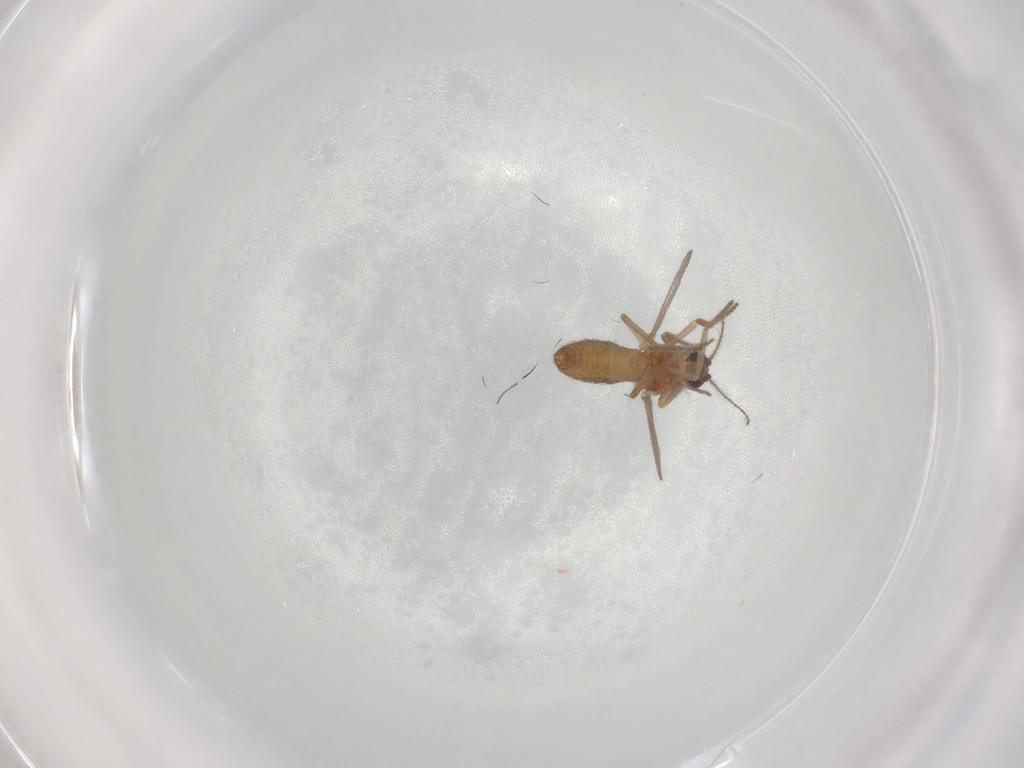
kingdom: Animalia
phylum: Arthropoda
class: Insecta
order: Diptera
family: Ceratopogonidae
